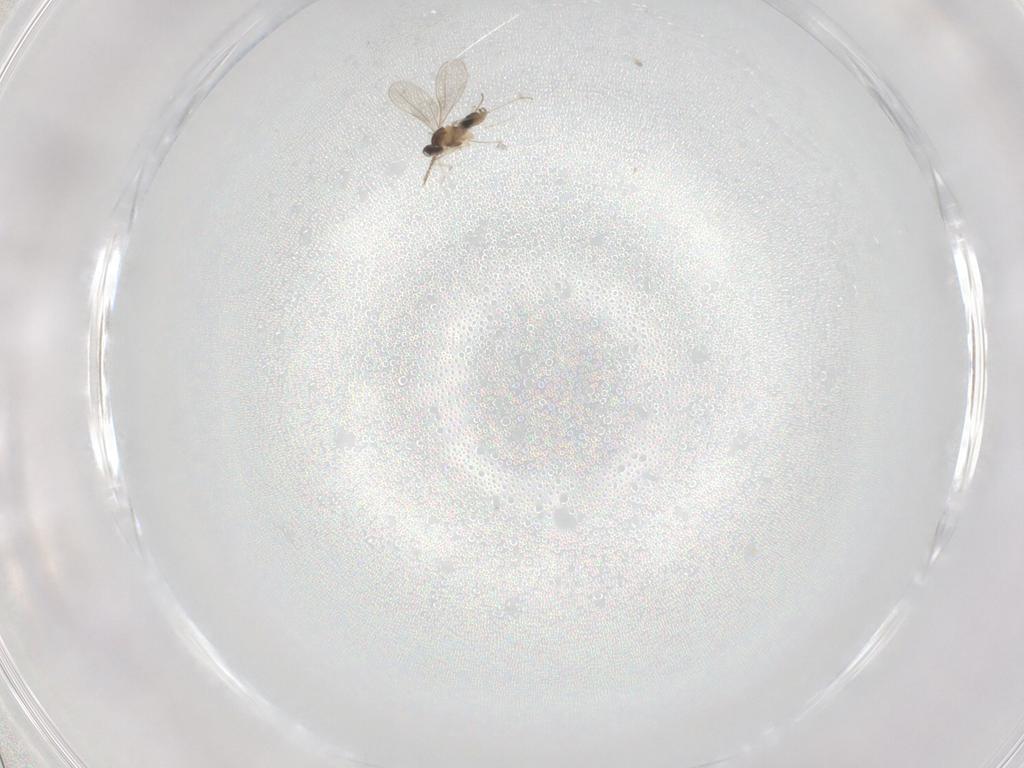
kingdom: Animalia
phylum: Arthropoda
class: Insecta
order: Diptera
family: Cecidomyiidae
